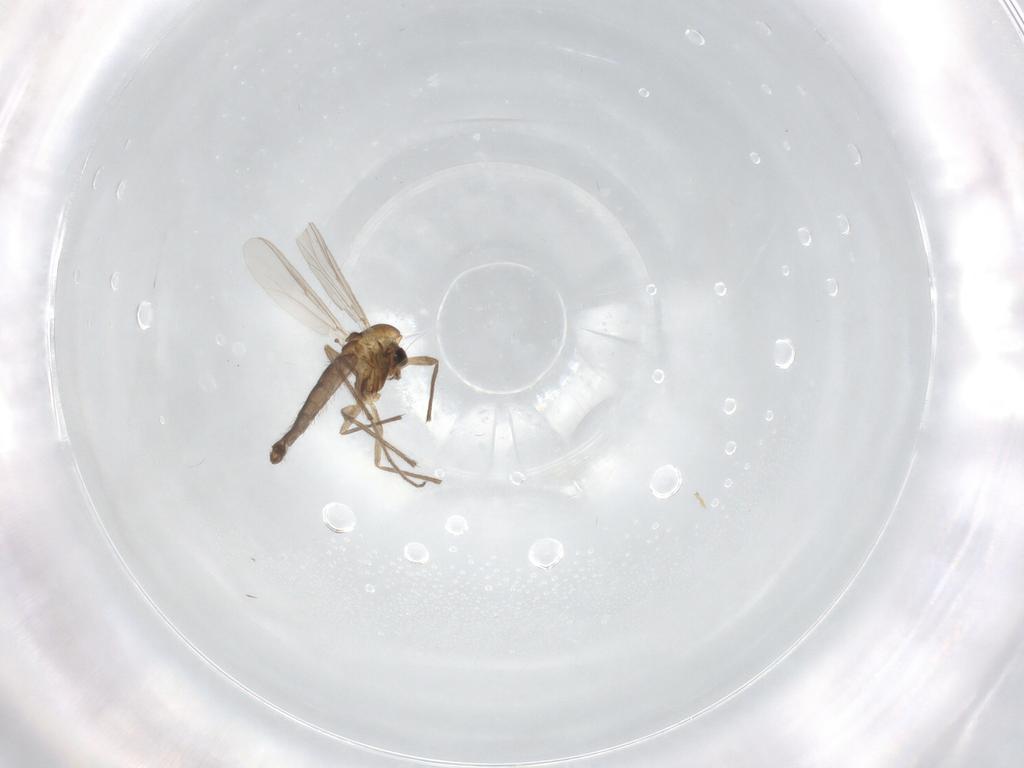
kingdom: Animalia
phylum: Arthropoda
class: Insecta
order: Diptera
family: Chironomidae
